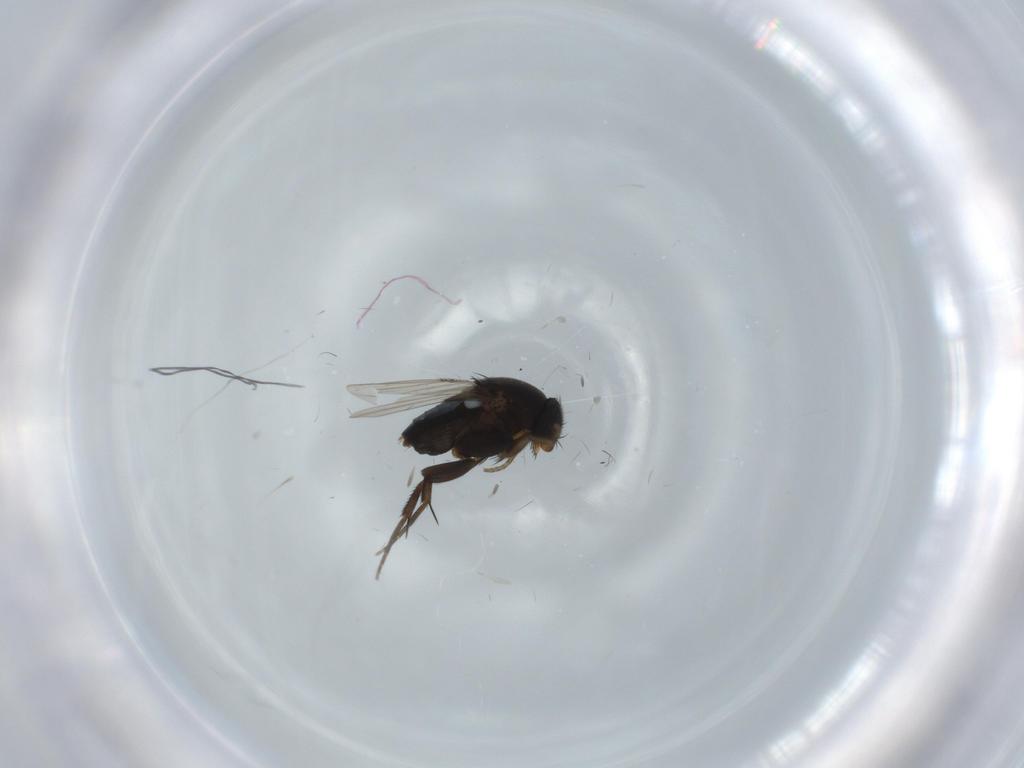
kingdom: Animalia
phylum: Arthropoda
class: Insecta
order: Diptera
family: Phoridae
